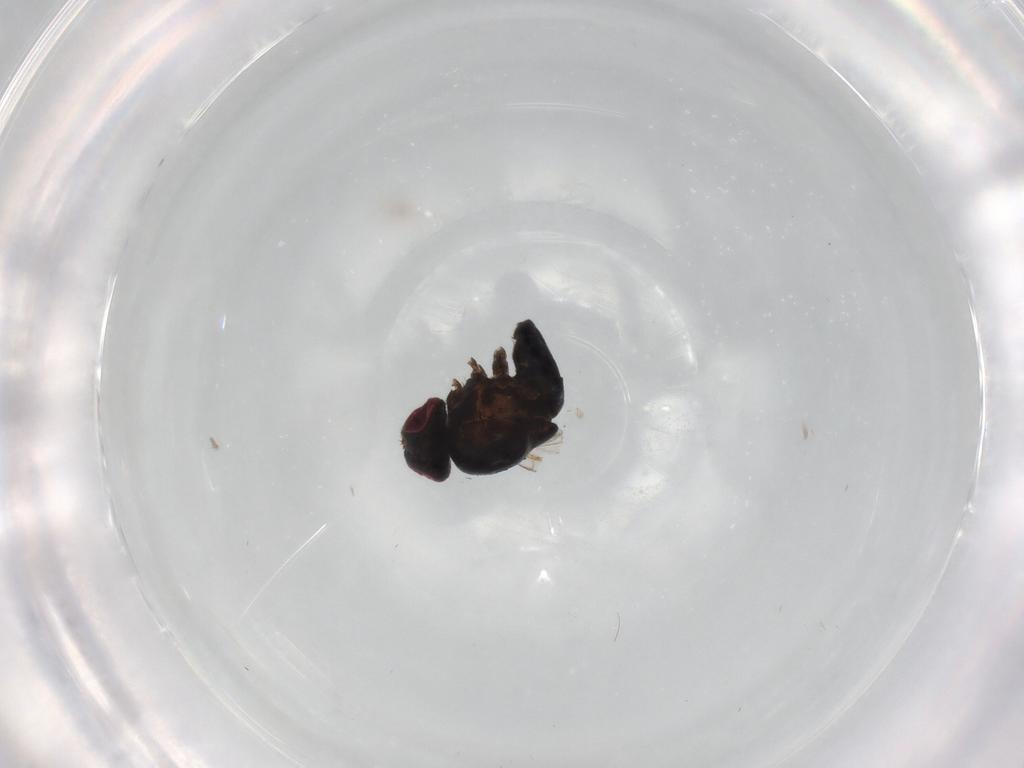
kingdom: Animalia
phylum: Arthropoda
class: Insecta
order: Diptera
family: Agromyzidae
